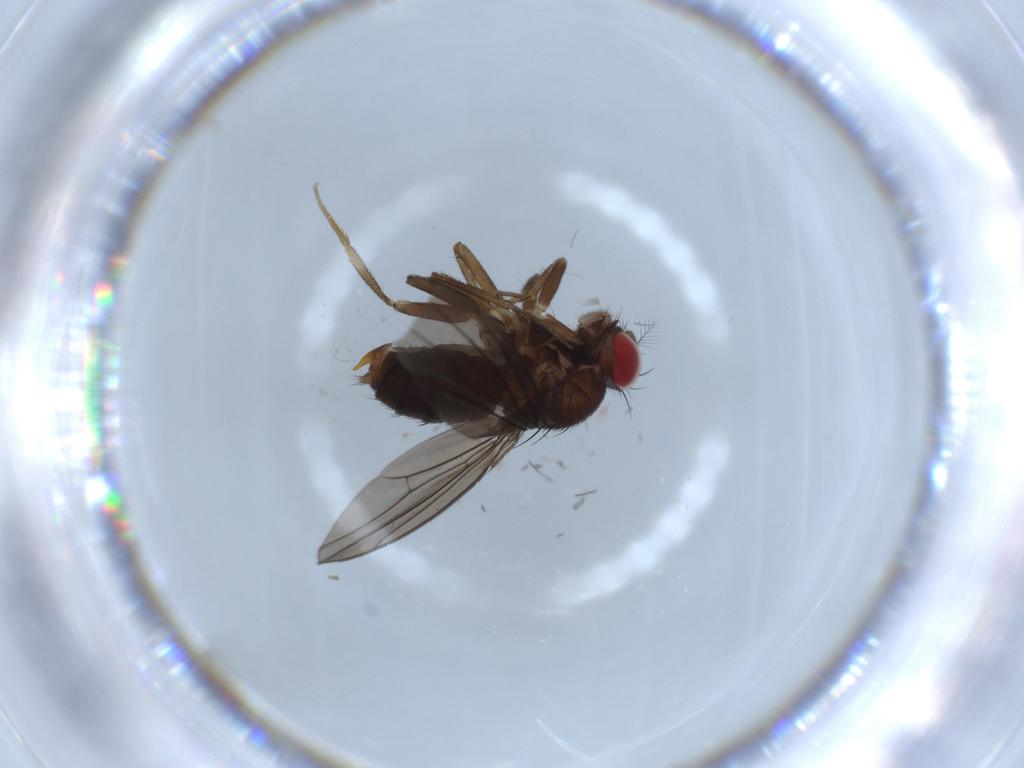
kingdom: Animalia
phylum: Arthropoda
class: Insecta
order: Diptera
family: Drosophilidae
